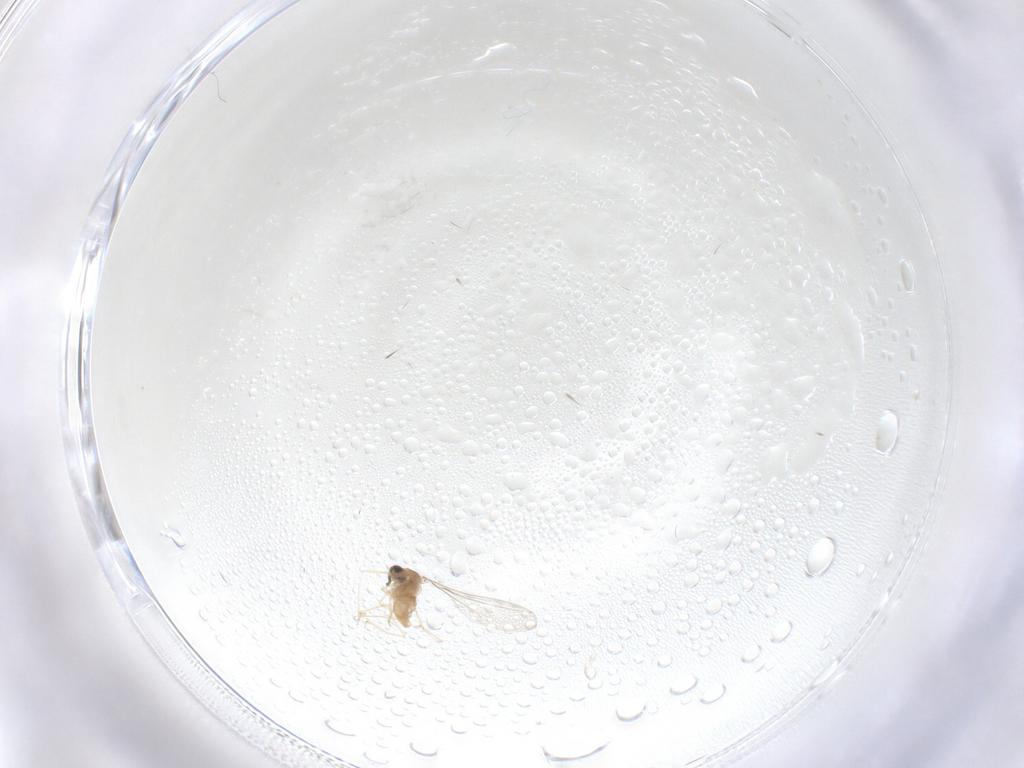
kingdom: Animalia
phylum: Arthropoda
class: Insecta
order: Diptera
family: Cecidomyiidae
